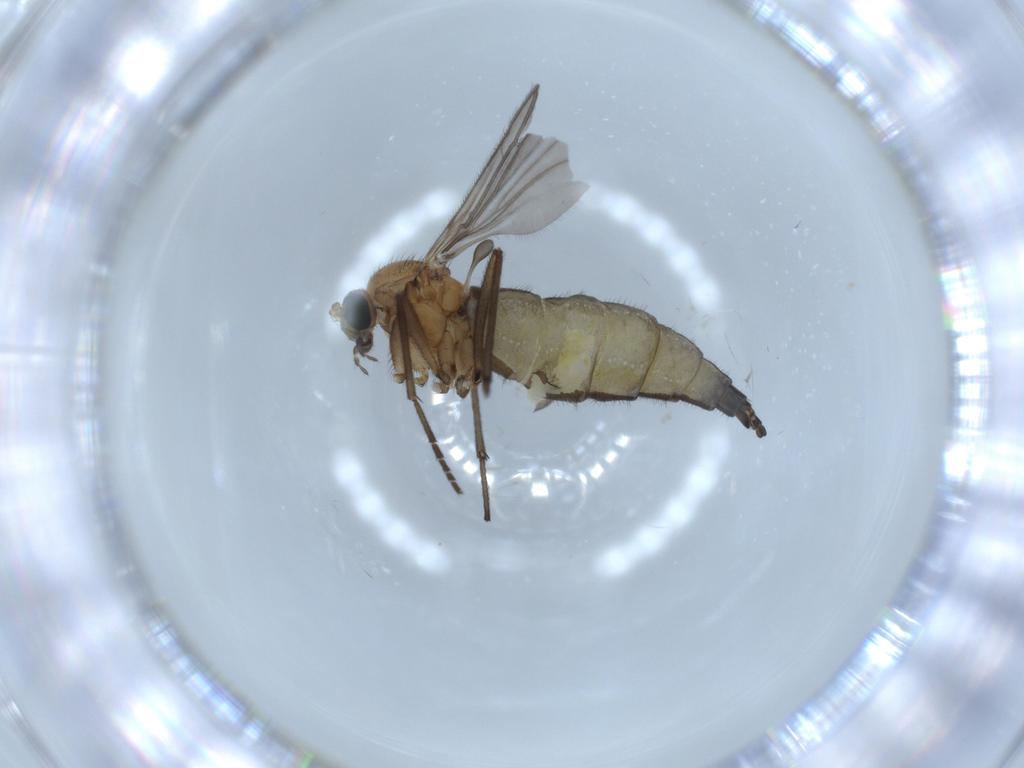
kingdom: Animalia
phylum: Arthropoda
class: Insecta
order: Diptera
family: Sciaridae
